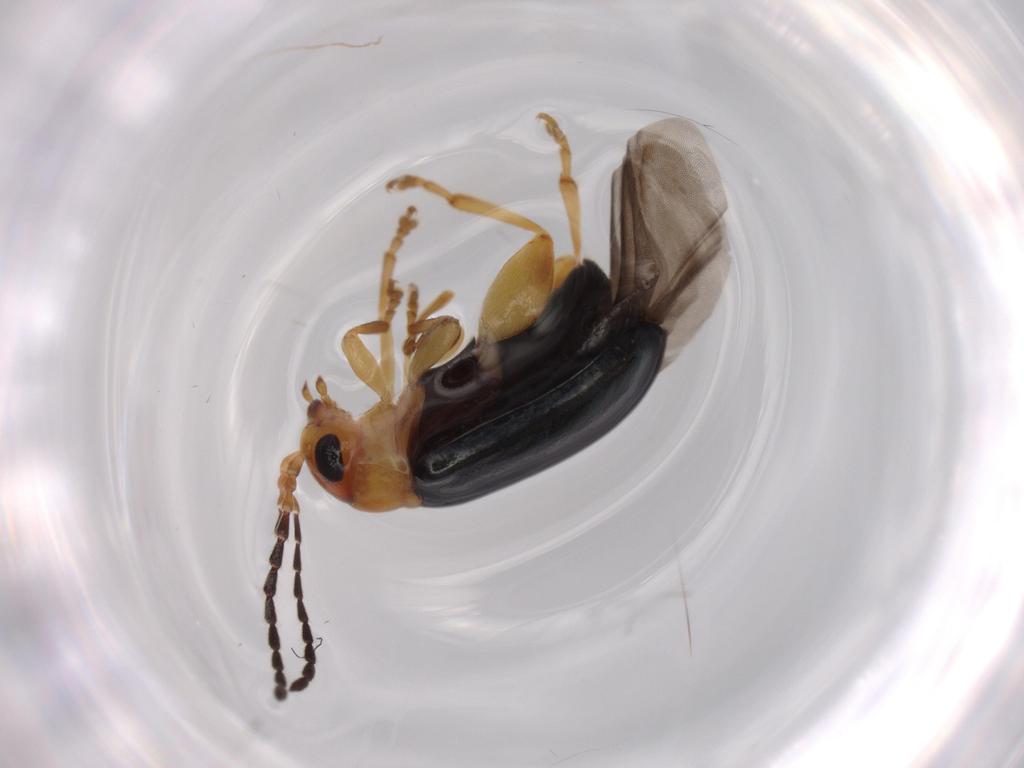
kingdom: Animalia
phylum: Arthropoda
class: Insecta
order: Coleoptera
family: Chrysomelidae
